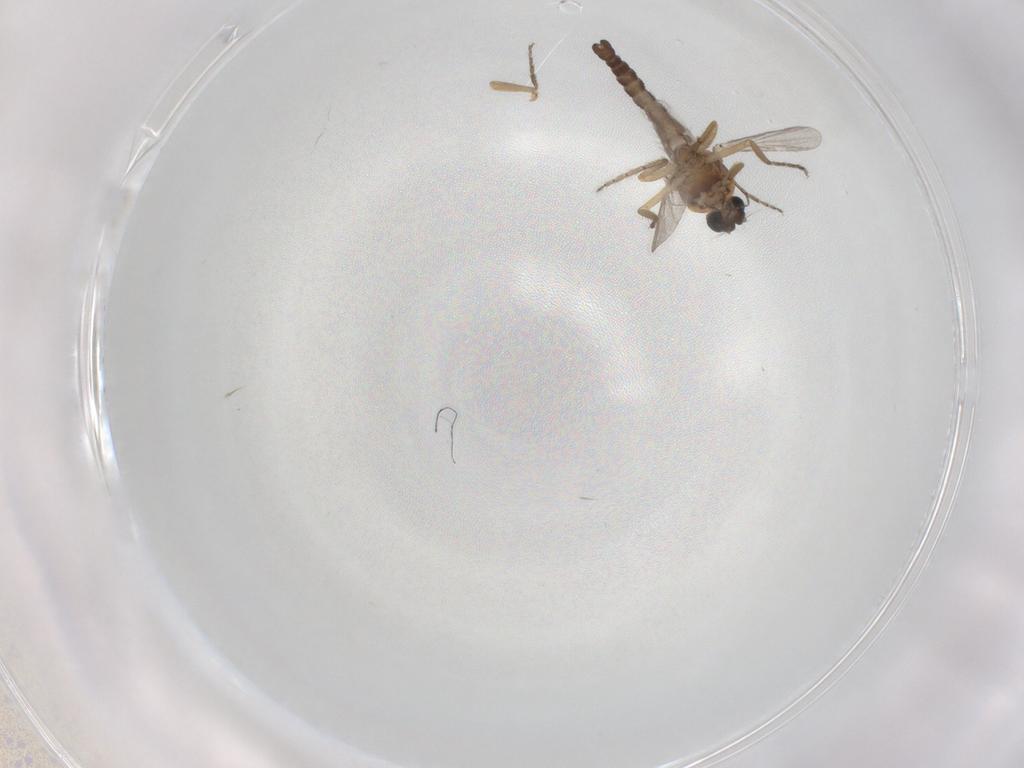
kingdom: Animalia
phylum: Arthropoda
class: Insecta
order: Diptera
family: Ceratopogonidae
